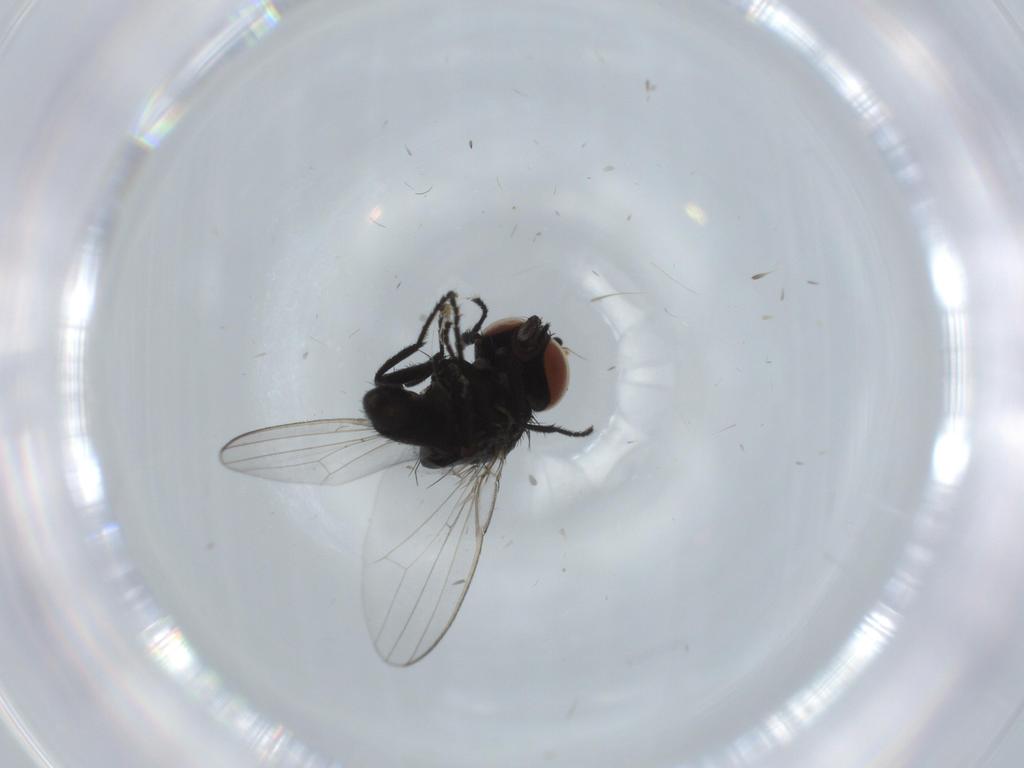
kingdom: Animalia
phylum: Arthropoda
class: Insecta
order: Diptera
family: Milichiidae
